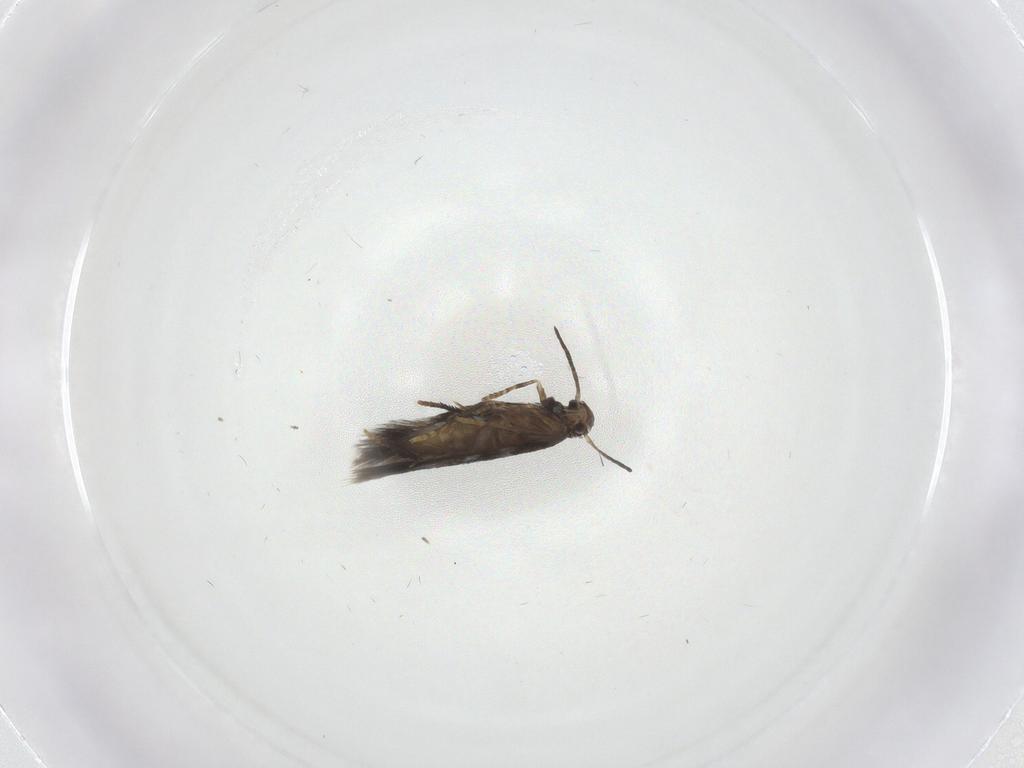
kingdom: Animalia
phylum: Arthropoda
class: Insecta
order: Lepidoptera
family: Heliozelidae
